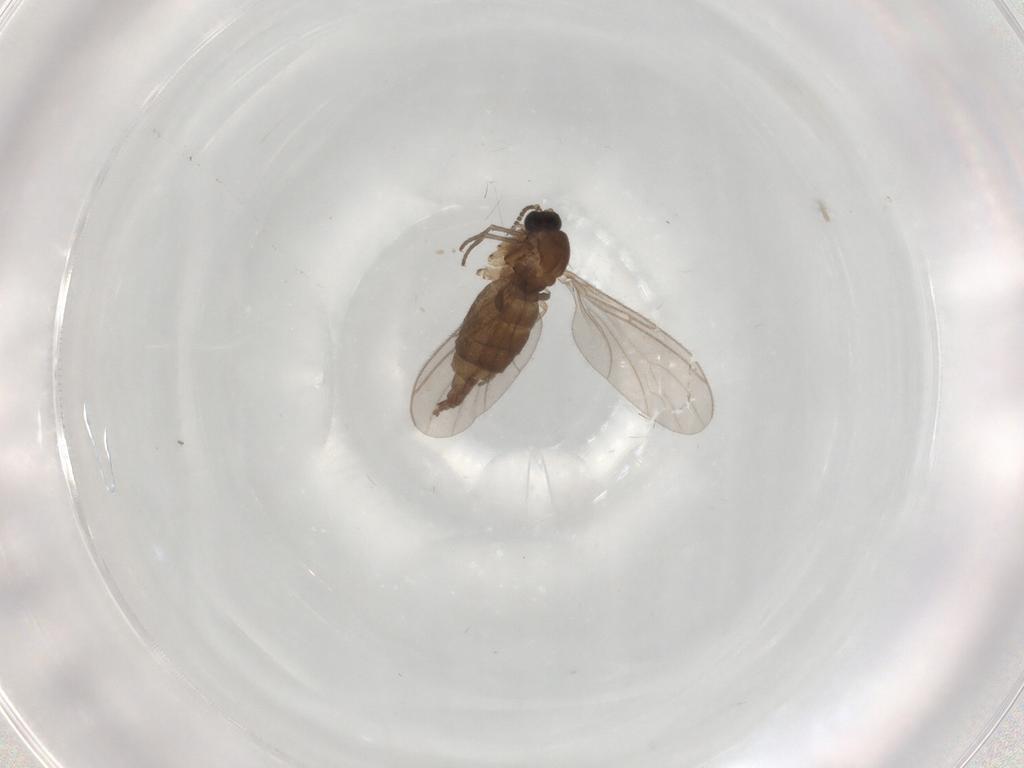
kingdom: Animalia
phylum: Arthropoda
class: Insecta
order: Diptera
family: Sciaridae
